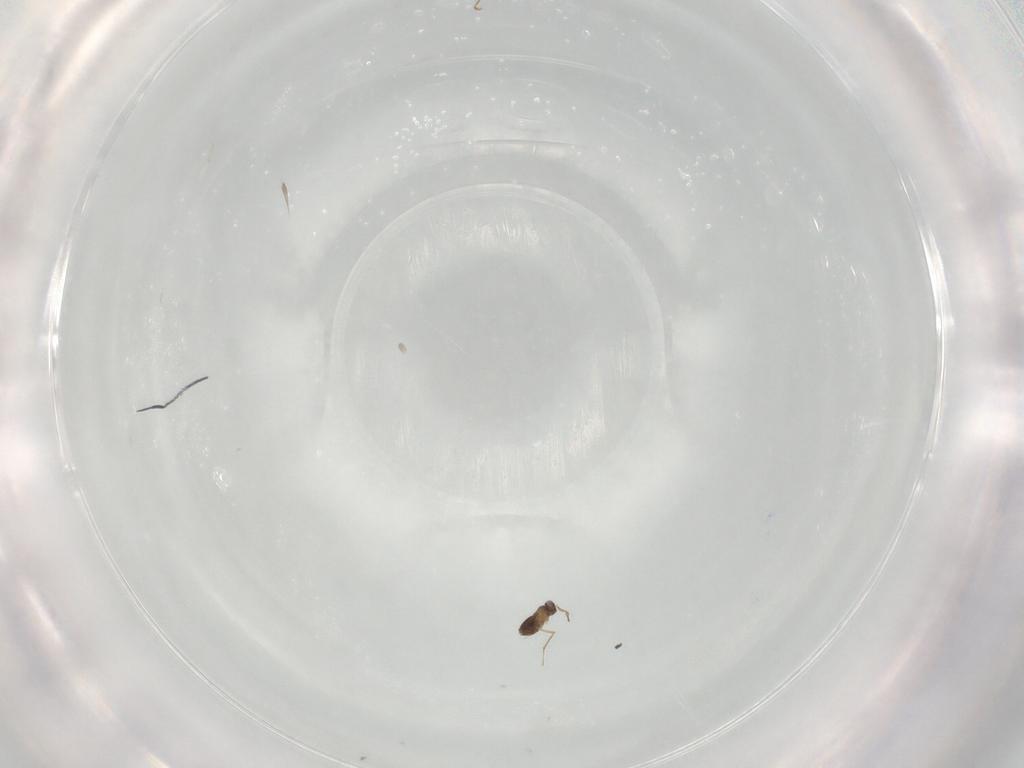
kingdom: Animalia
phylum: Arthropoda
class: Insecta
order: Hymenoptera
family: Mymaridae
